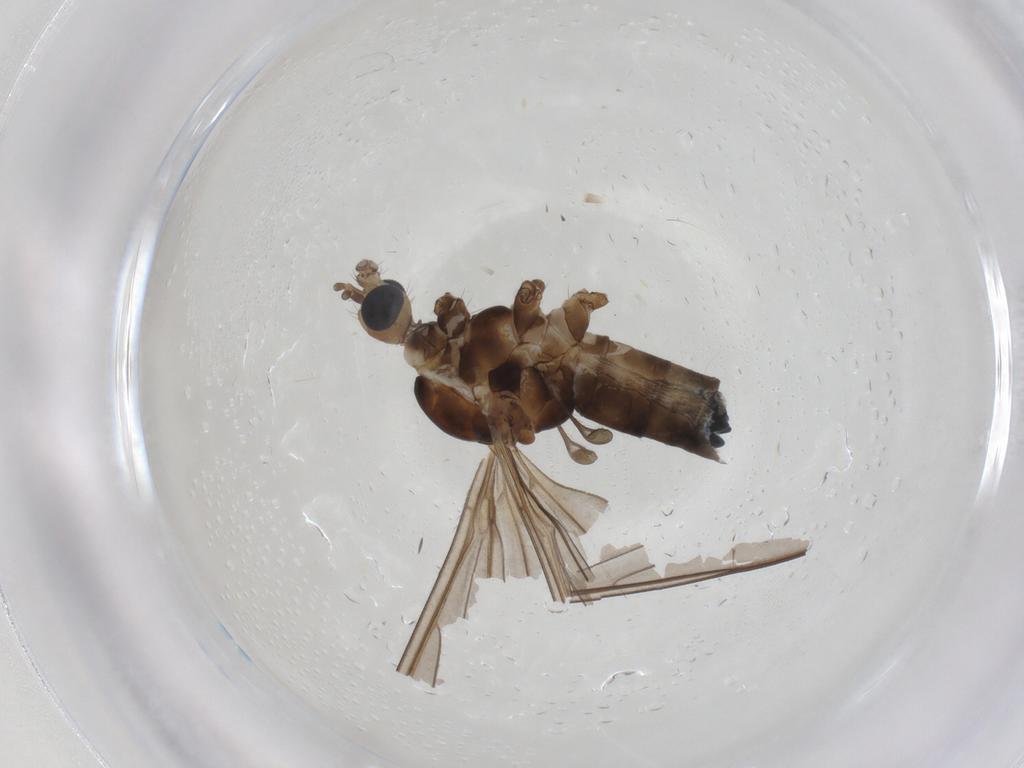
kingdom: Animalia
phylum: Arthropoda
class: Insecta
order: Diptera
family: Limoniidae
